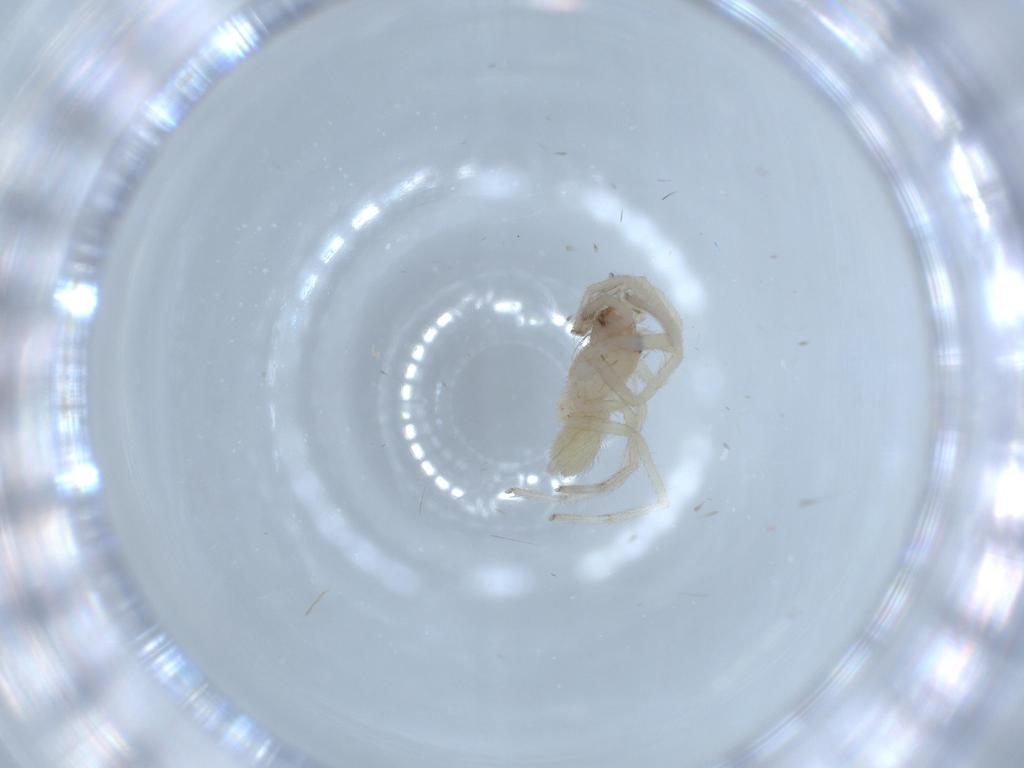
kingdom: Animalia
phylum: Arthropoda
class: Arachnida
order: Araneae
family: Corinnidae
